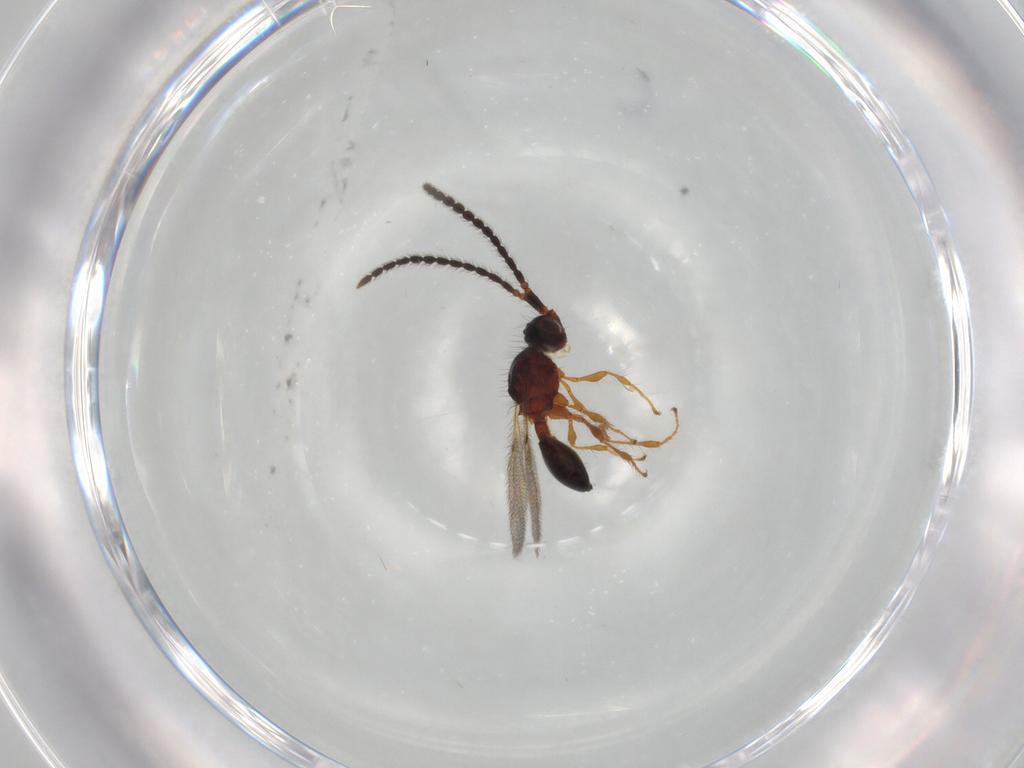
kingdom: Animalia
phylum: Arthropoda
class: Insecta
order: Hymenoptera
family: Diapriidae
